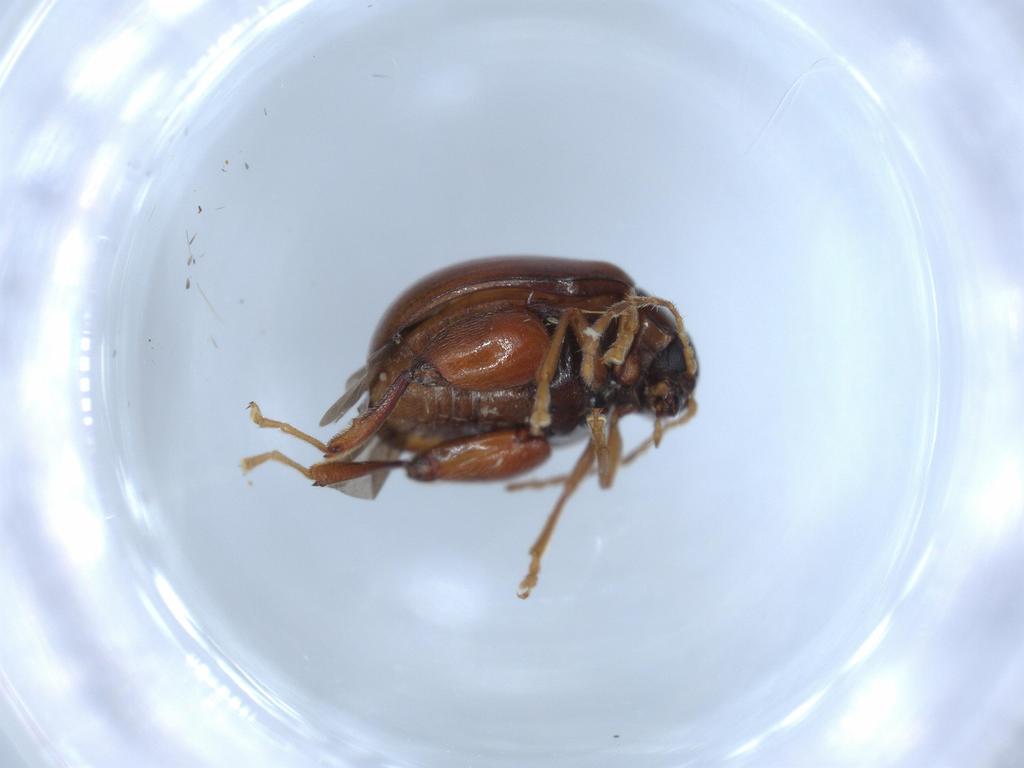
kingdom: Animalia
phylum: Arthropoda
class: Insecta
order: Coleoptera
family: Chrysomelidae
